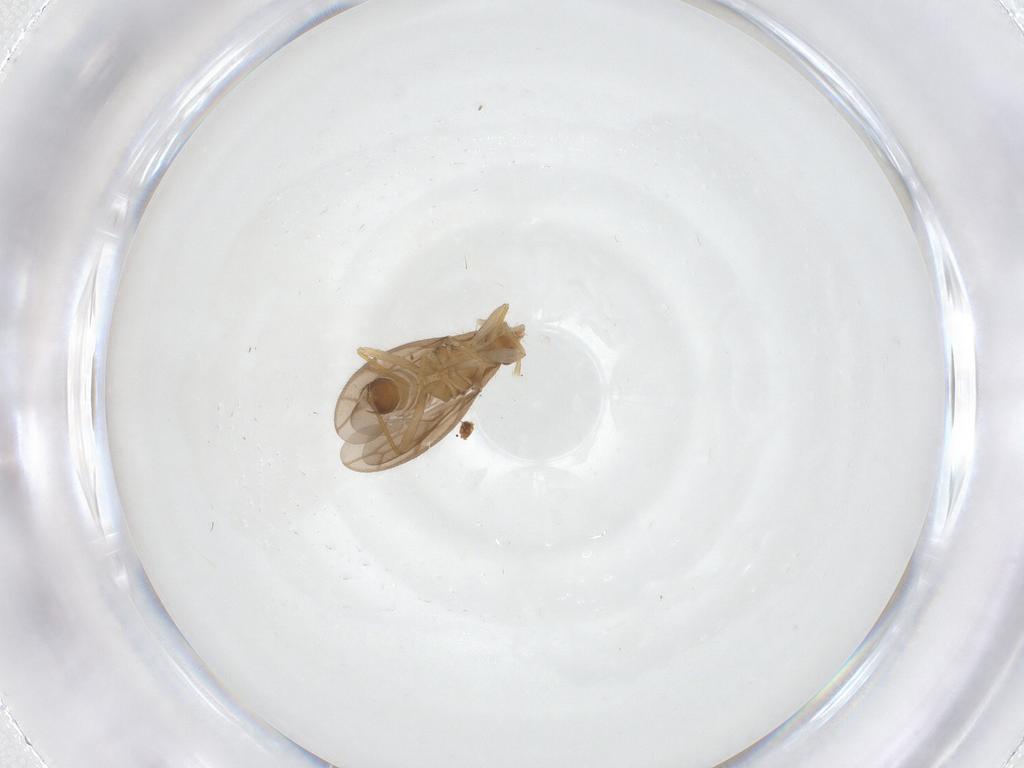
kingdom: Animalia
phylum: Arthropoda
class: Insecta
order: Hemiptera
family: Ceratocombidae
